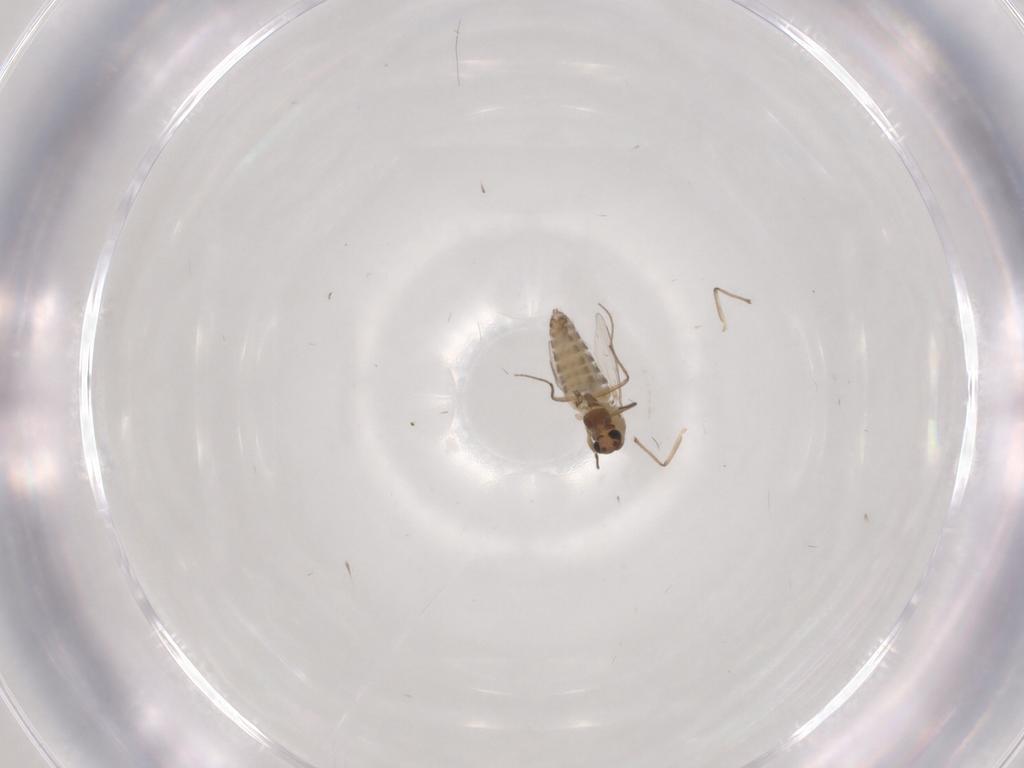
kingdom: Animalia
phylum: Arthropoda
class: Insecta
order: Diptera
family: Chironomidae
